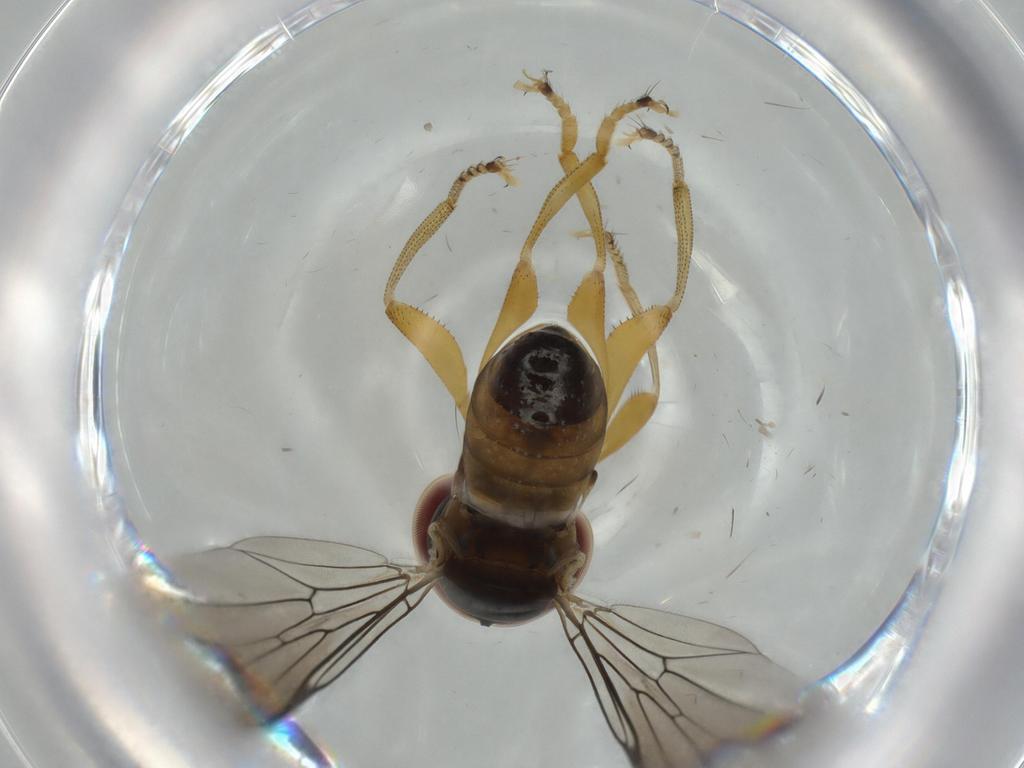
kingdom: Animalia
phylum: Arthropoda
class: Insecta
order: Diptera
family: Pipunculidae
